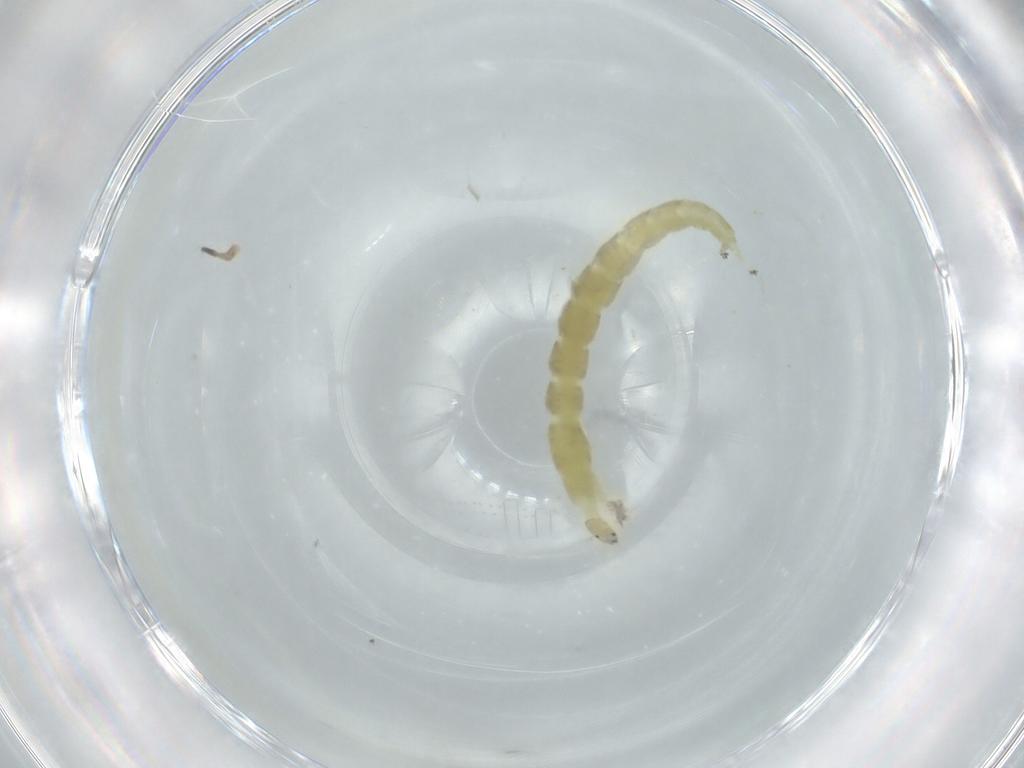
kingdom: Animalia
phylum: Arthropoda
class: Insecta
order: Diptera
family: Chironomidae
